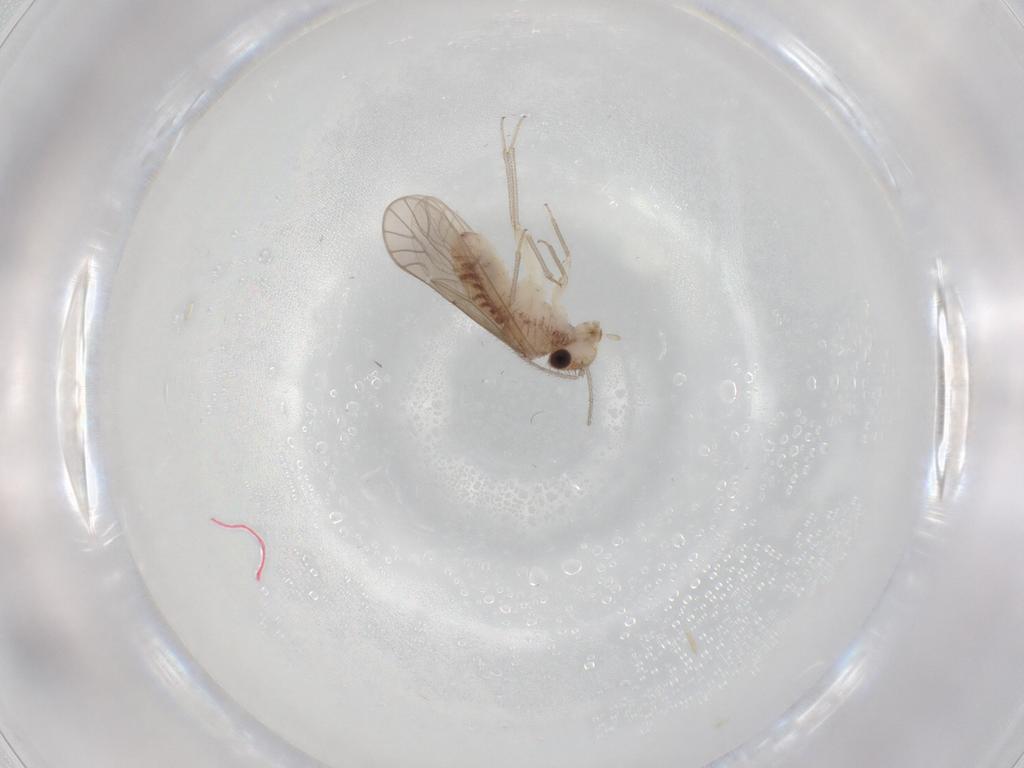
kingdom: Animalia
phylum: Arthropoda
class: Insecta
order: Psocodea
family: Caeciliusidae
